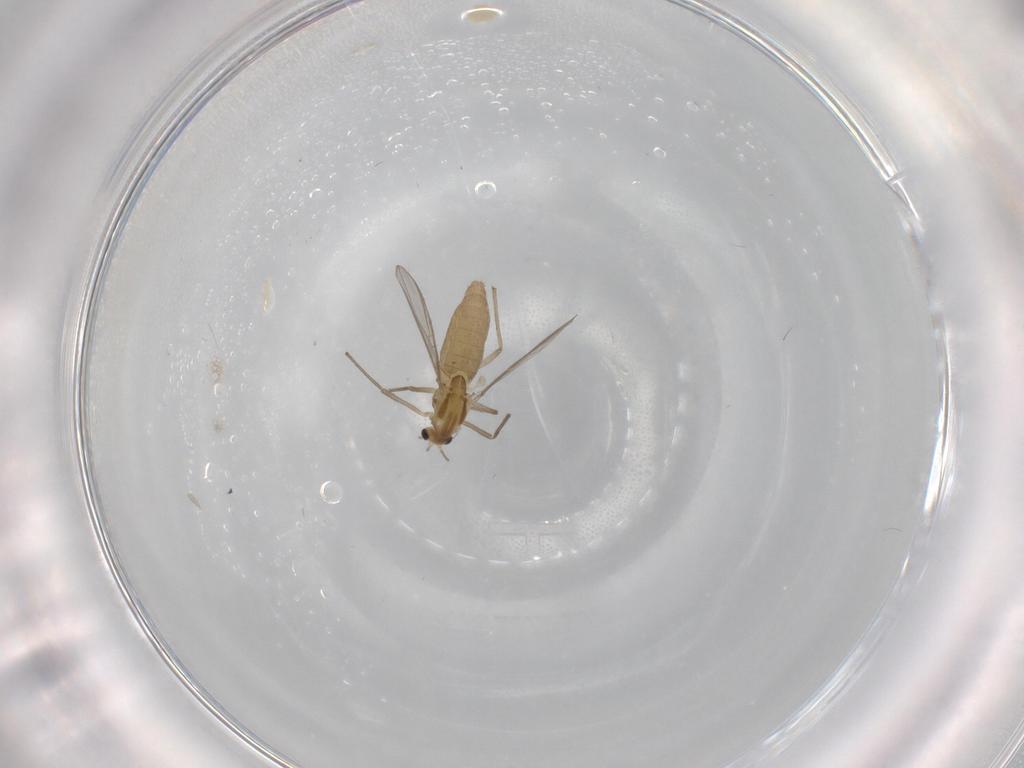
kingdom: Animalia
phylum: Arthropoda
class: Insecta
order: Diptera
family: Chironomidae
